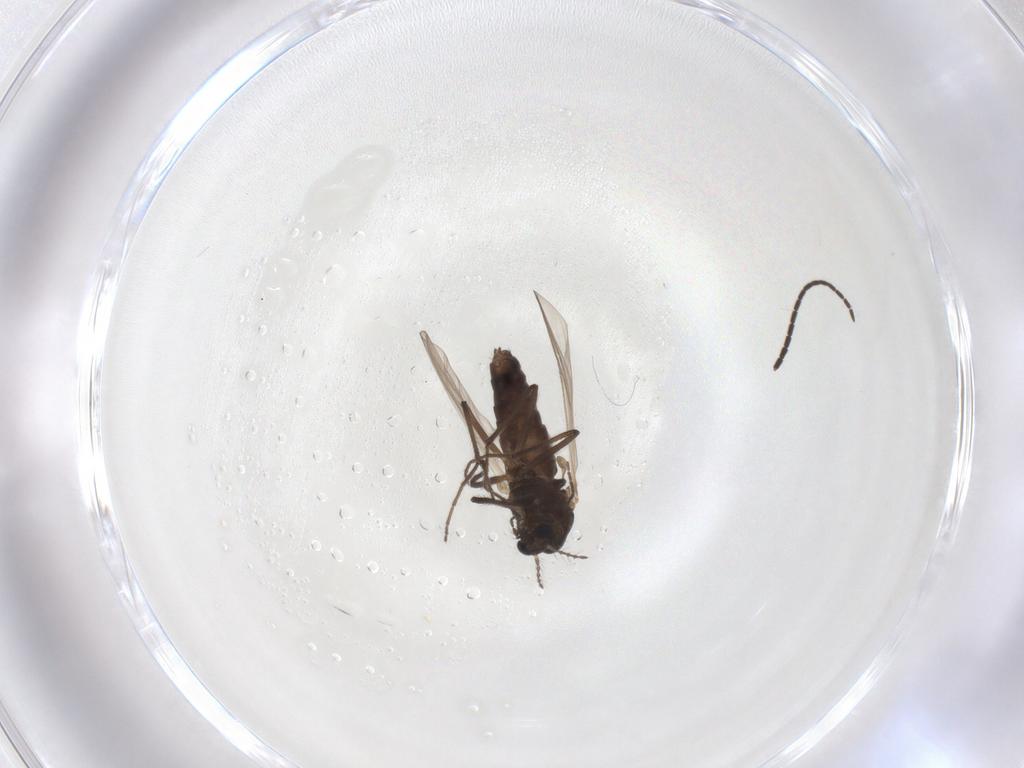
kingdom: Animalia
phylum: Arthropoda
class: Insecta
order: Diptera
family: Chironomidae
